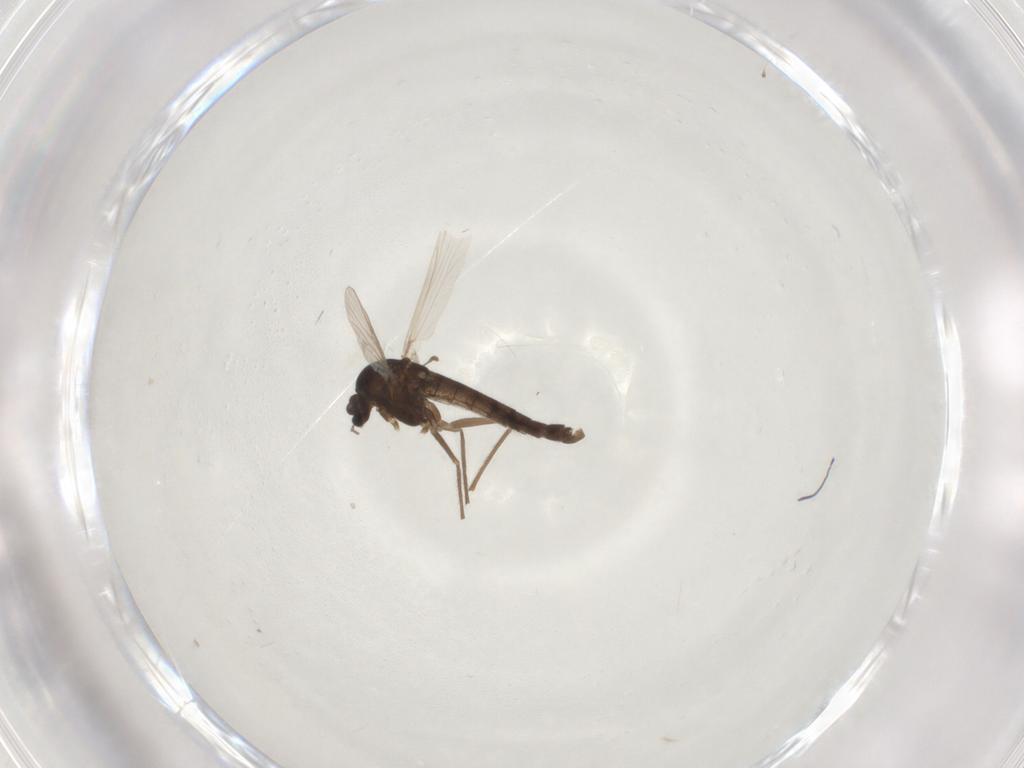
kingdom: Animalia
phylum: Arthropoda
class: Insecta
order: Diptera
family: Chironomidae
